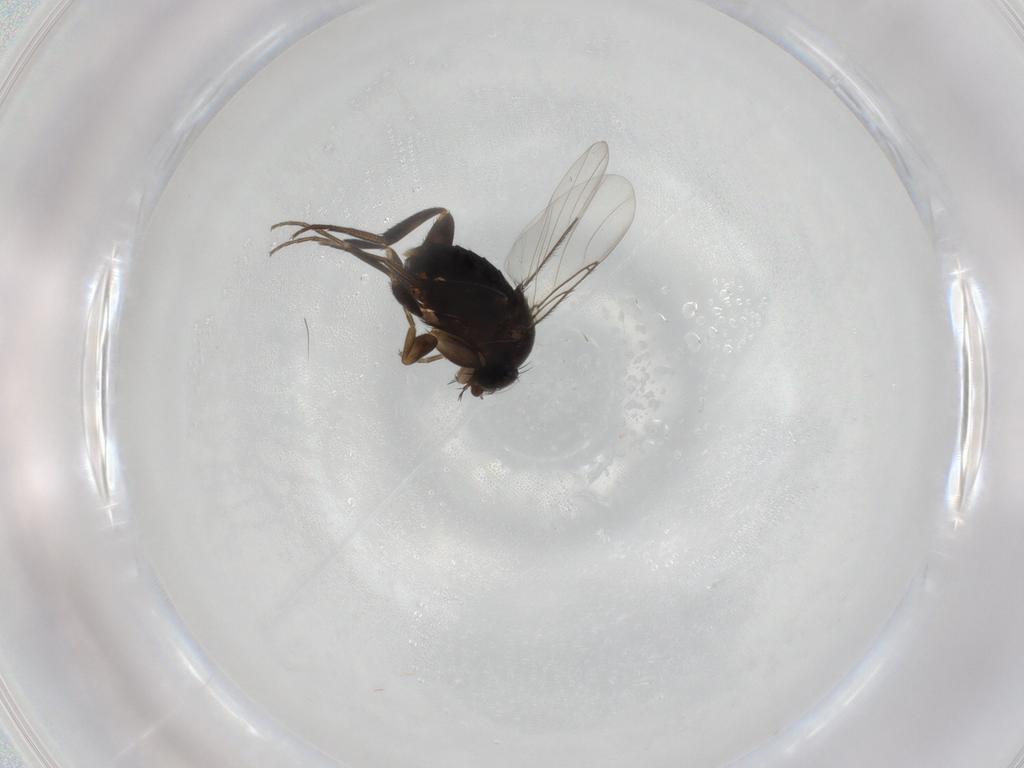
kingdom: Animalia
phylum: Arthropoda
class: Insecta
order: Diptera
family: Phoridae
